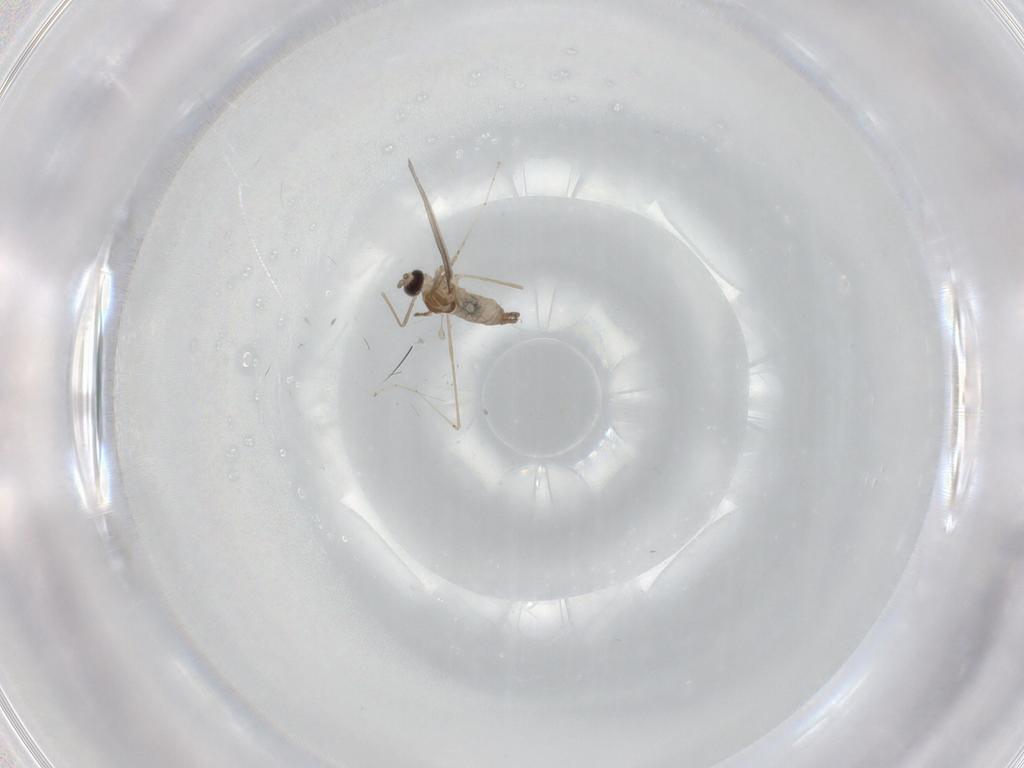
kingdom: Animalia
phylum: Arthropoda
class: Insecta
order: Diptera
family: Cecidomyiidae
